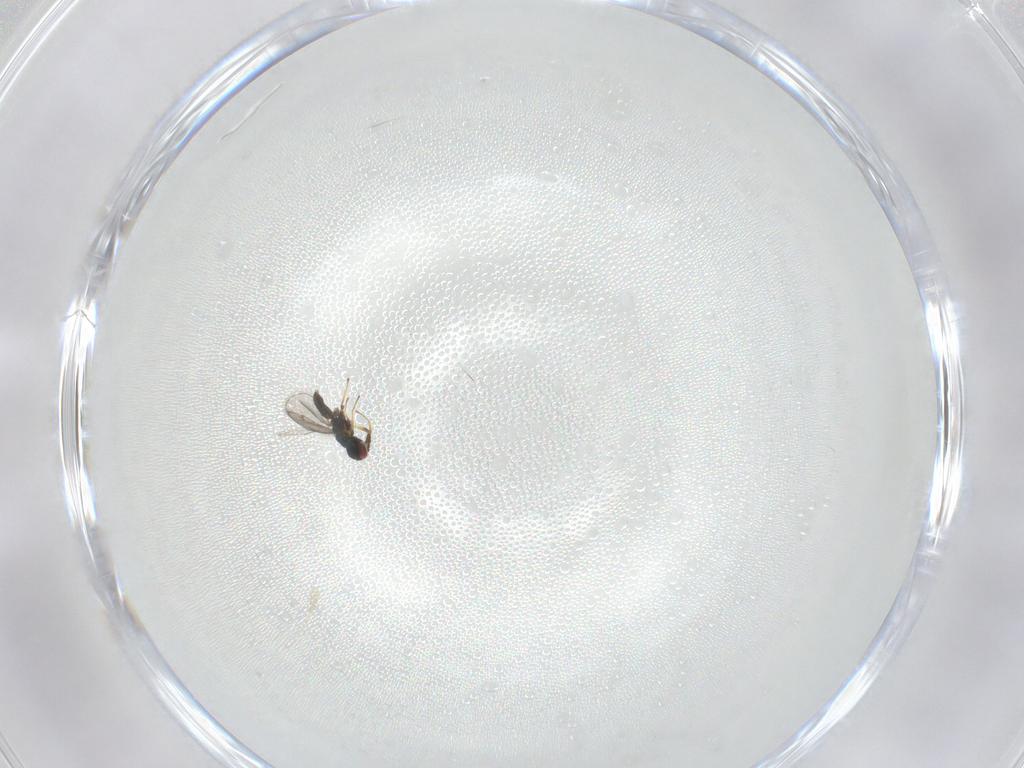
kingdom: Animalia
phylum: Arthropoda
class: Insecta
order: Hymenoptera
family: Eulophidae
